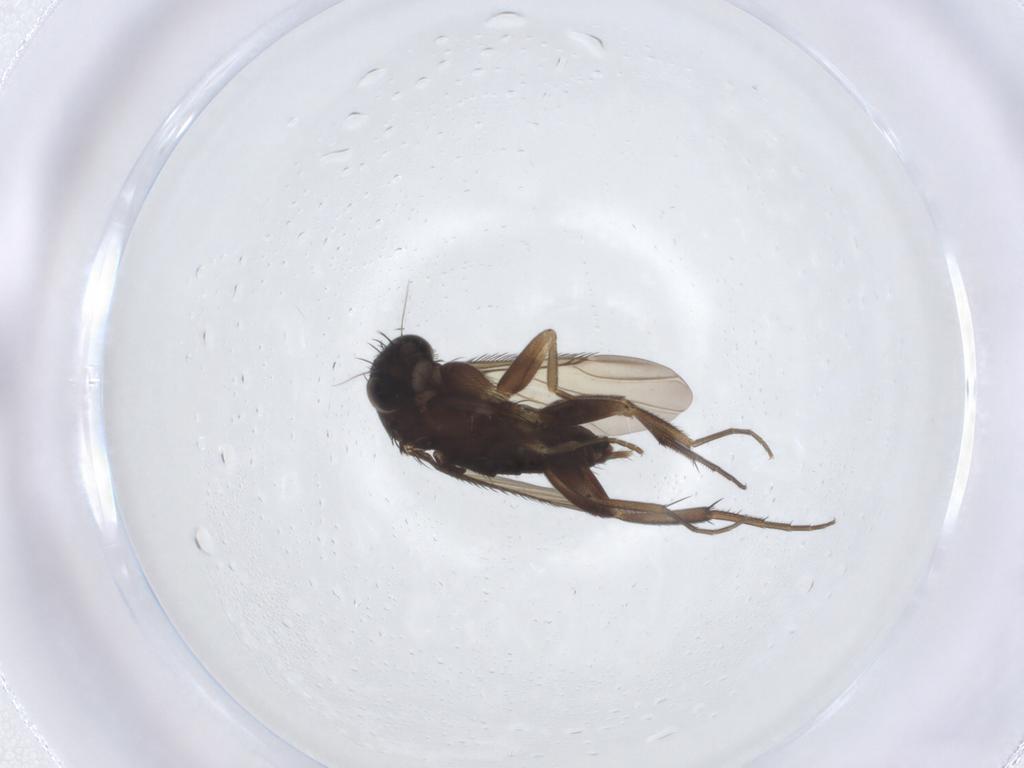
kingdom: Animalia
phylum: Arthropoda
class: Insecta
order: Diptera
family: Phoridae
